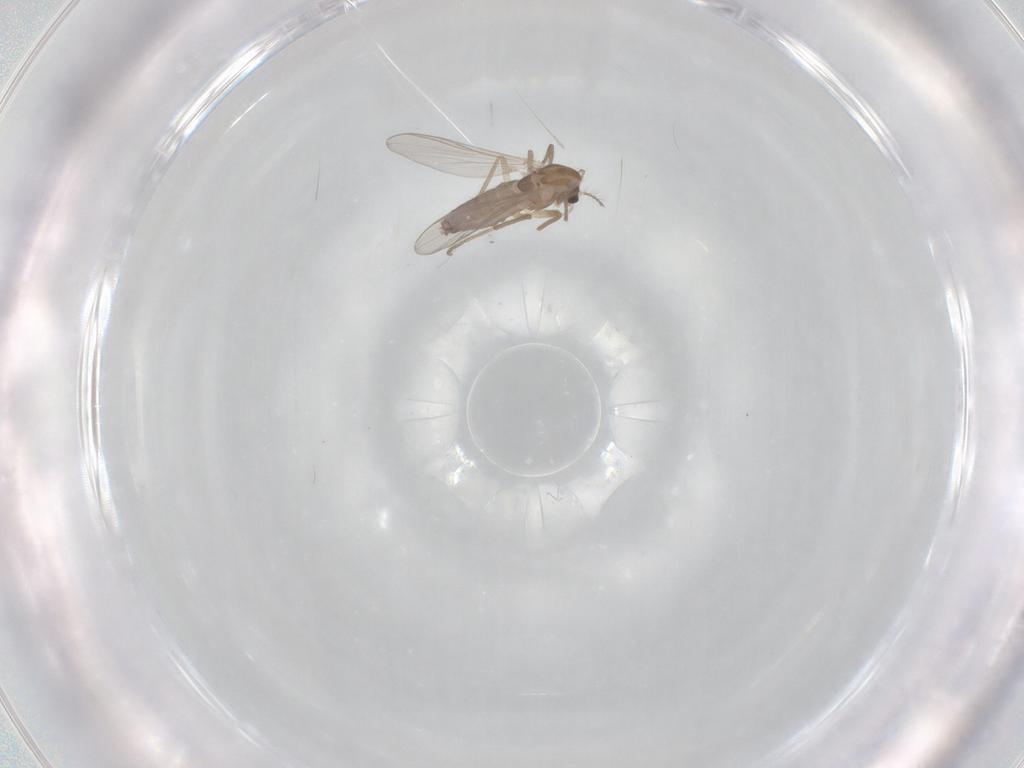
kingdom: Animalia
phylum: Arthropoda
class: Insecta
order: Diptera
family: Chironomidae
